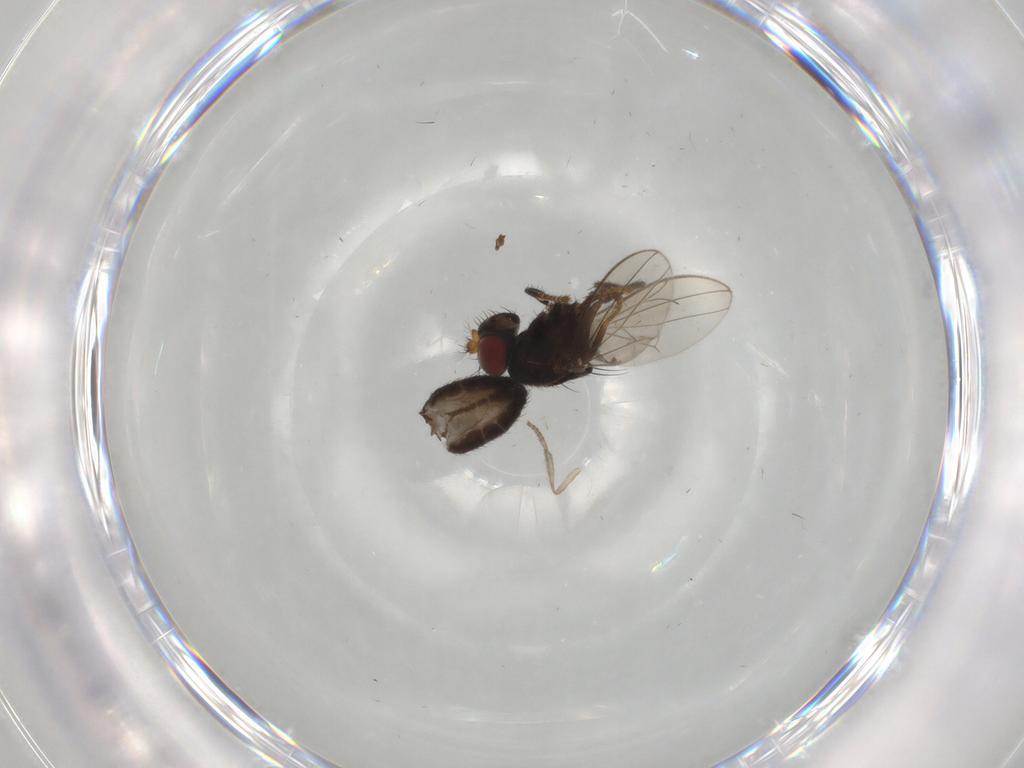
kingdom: Animalia
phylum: Arthropoda
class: Insecta
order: Diptera
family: Psychodidae
